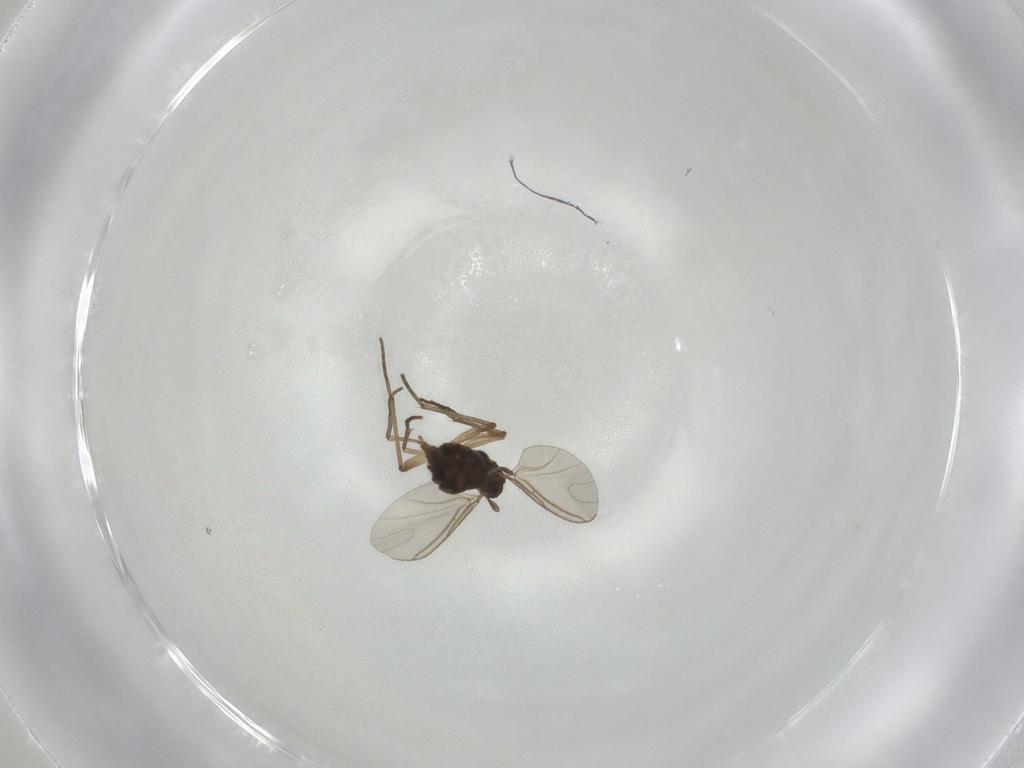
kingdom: Animalia
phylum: Arthropoda
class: Insecta
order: Diptera
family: Sciaridae
